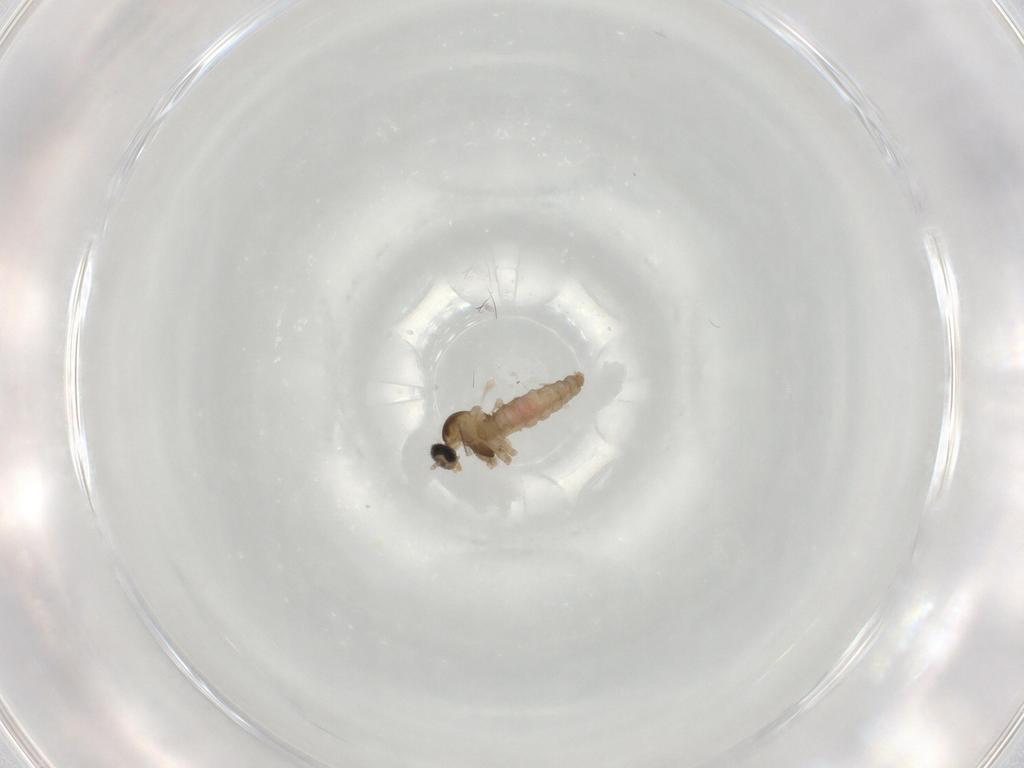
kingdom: Animalia
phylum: Arthropoda
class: Insecta
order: Diptera
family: Cecidomyiidae
